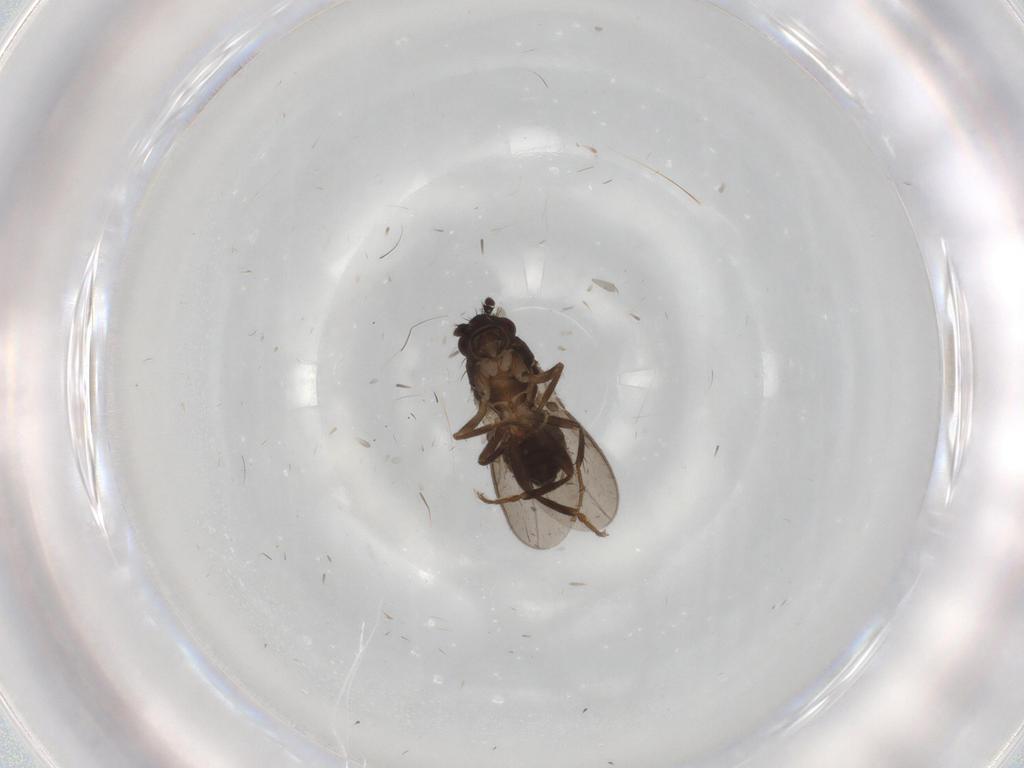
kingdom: Animalia
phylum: Arthropoda
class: Insecta
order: Diptera
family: Sphaeroceridae
